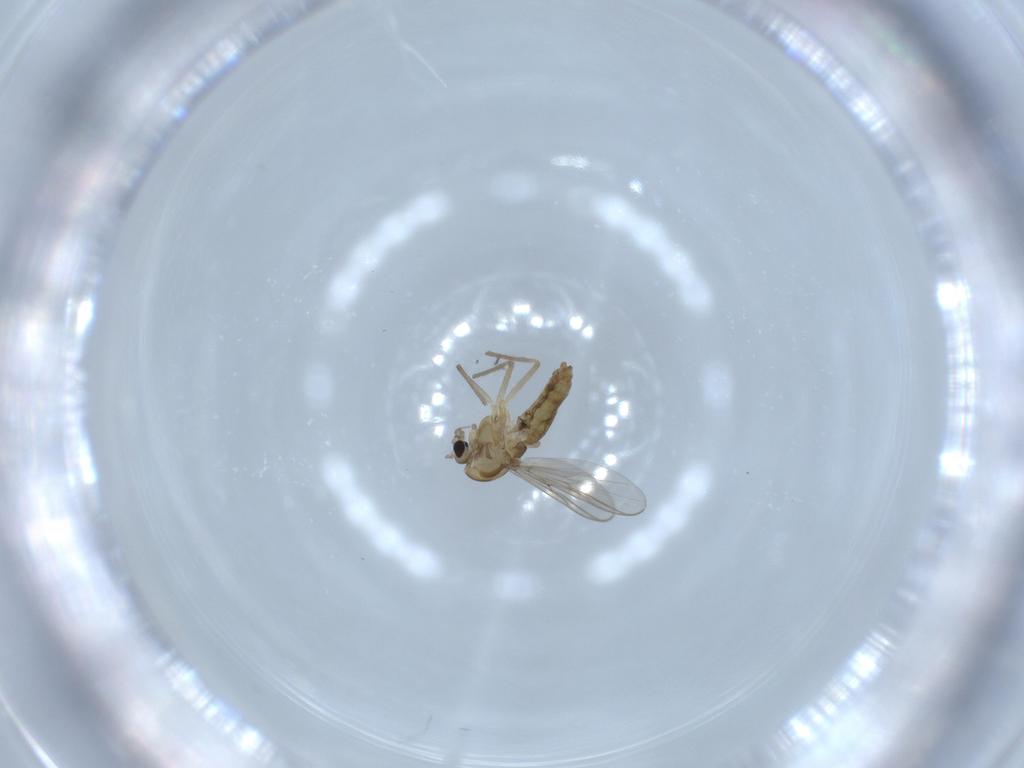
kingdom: Animalia
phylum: Arthropoda
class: Insecta
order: Diptera
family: Chironomidae
